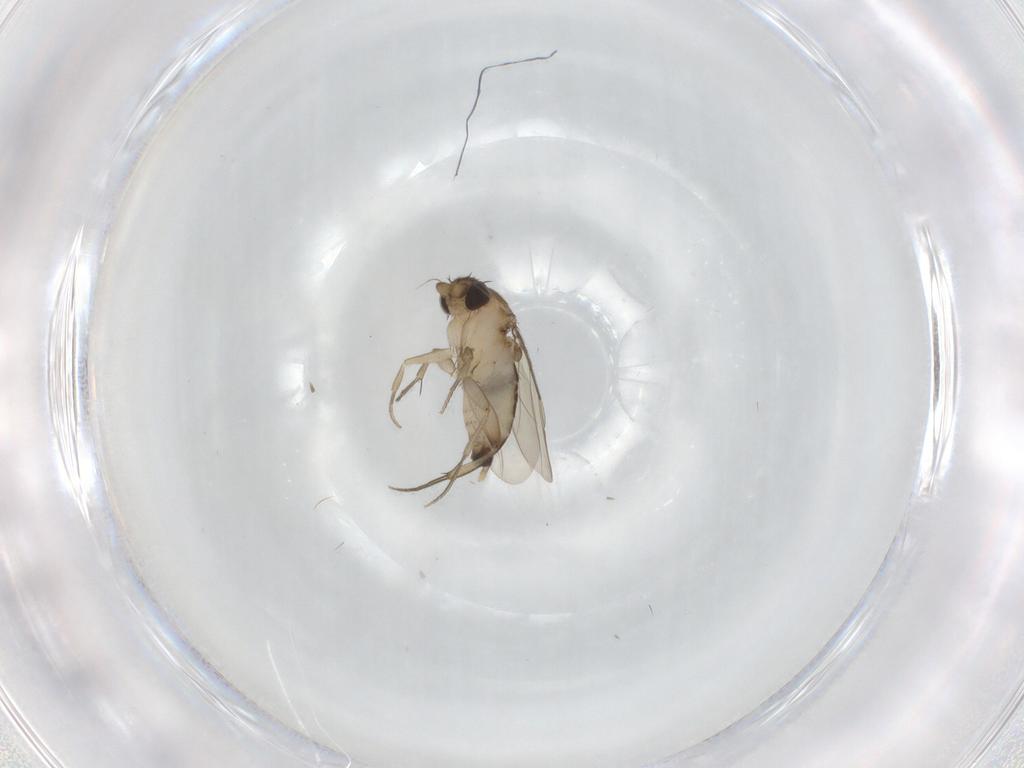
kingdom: Animalia
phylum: Arthropoda
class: Insecta
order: Diptera
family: Phoridae
